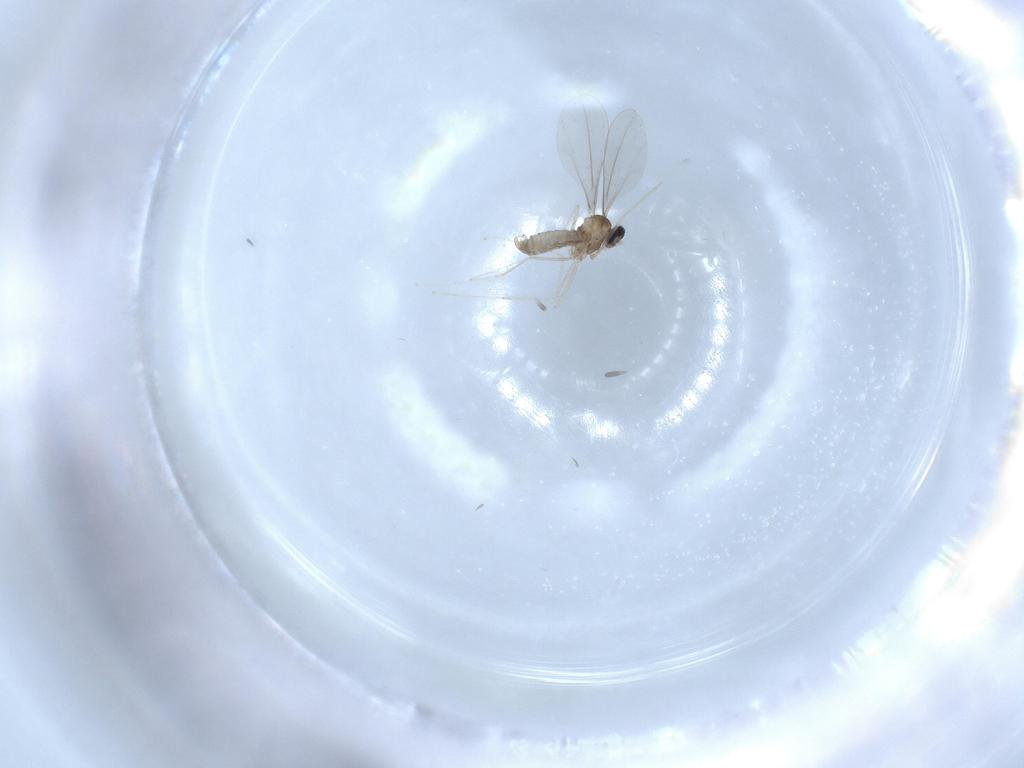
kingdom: Animalia
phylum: Arthropoda
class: Insecta
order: Diptera
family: Cecidomyiidae
